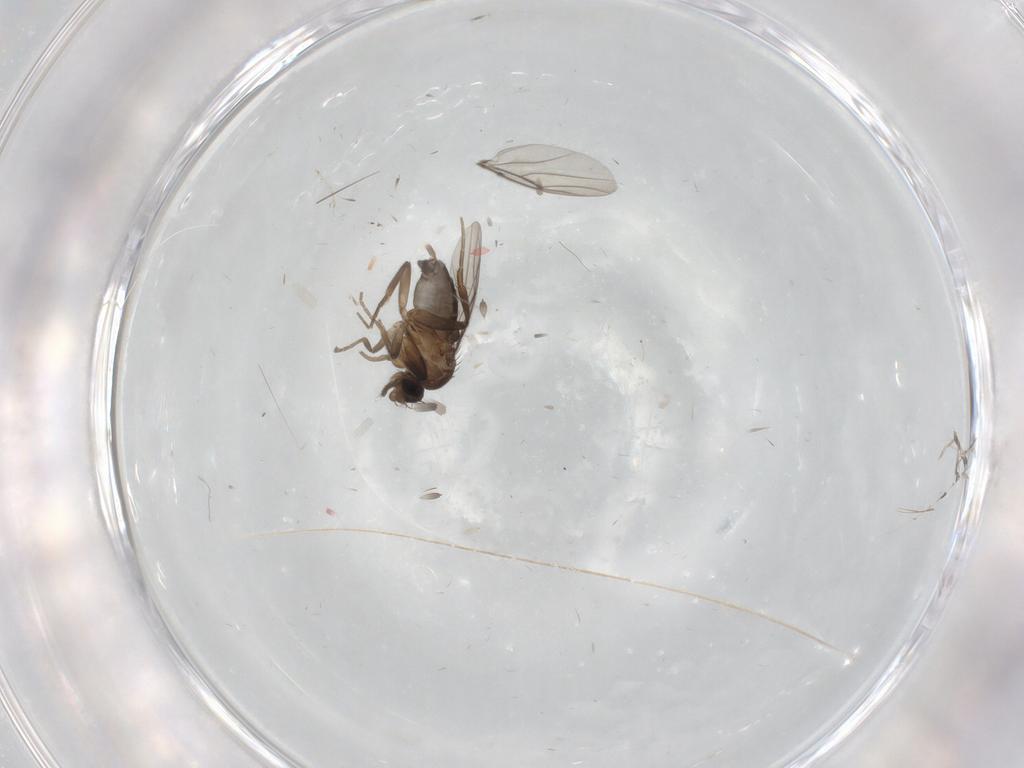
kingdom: Animalia
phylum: Arthropoda
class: Insecta
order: Diptera
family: Phoridae
